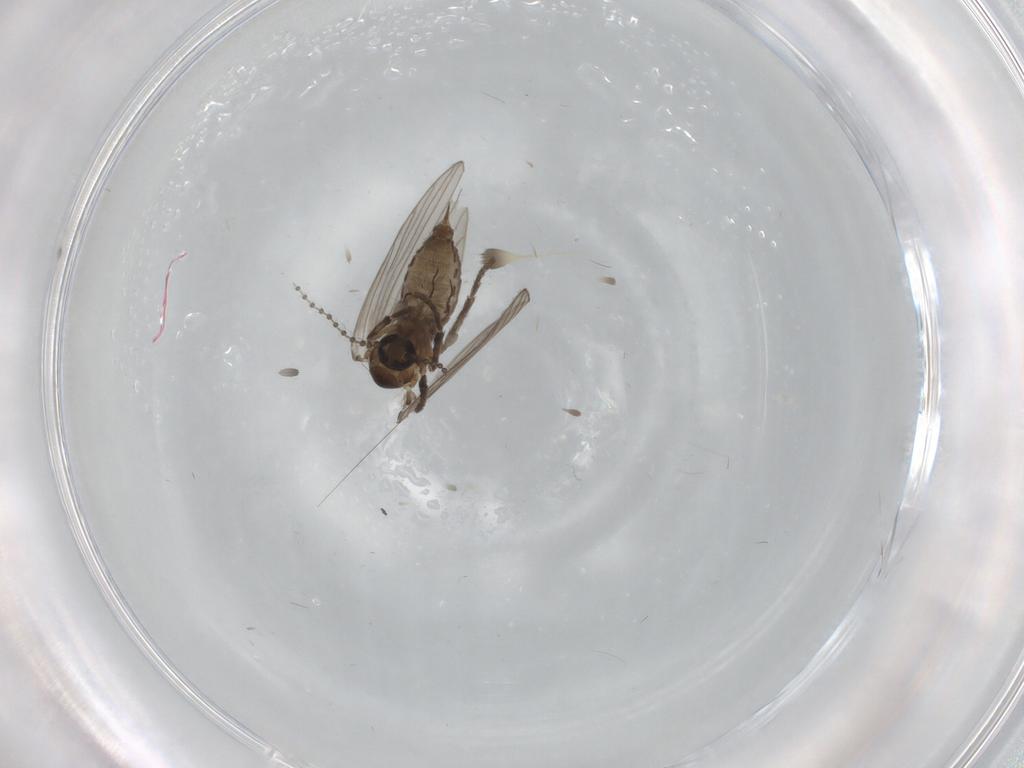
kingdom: Animalia
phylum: Arthropoda
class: Insecta
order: Diptera
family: Psychodidae
